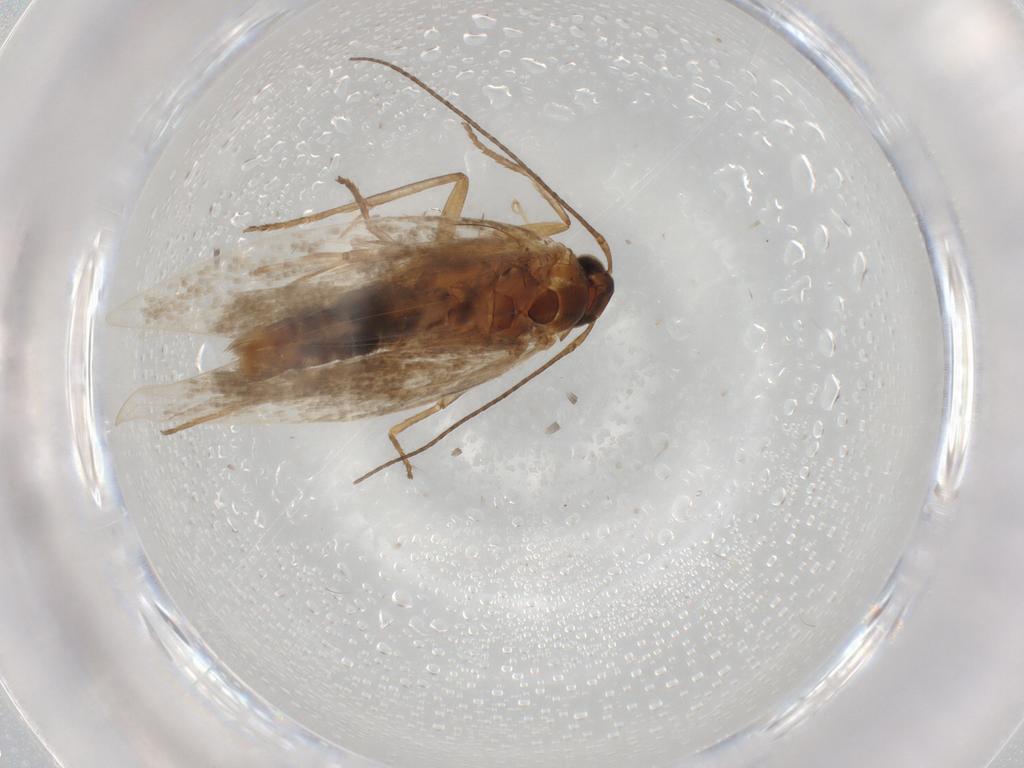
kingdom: Animalia
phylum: Arthropoda
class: Insecta
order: Lepidoptera
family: Gelechiidae
